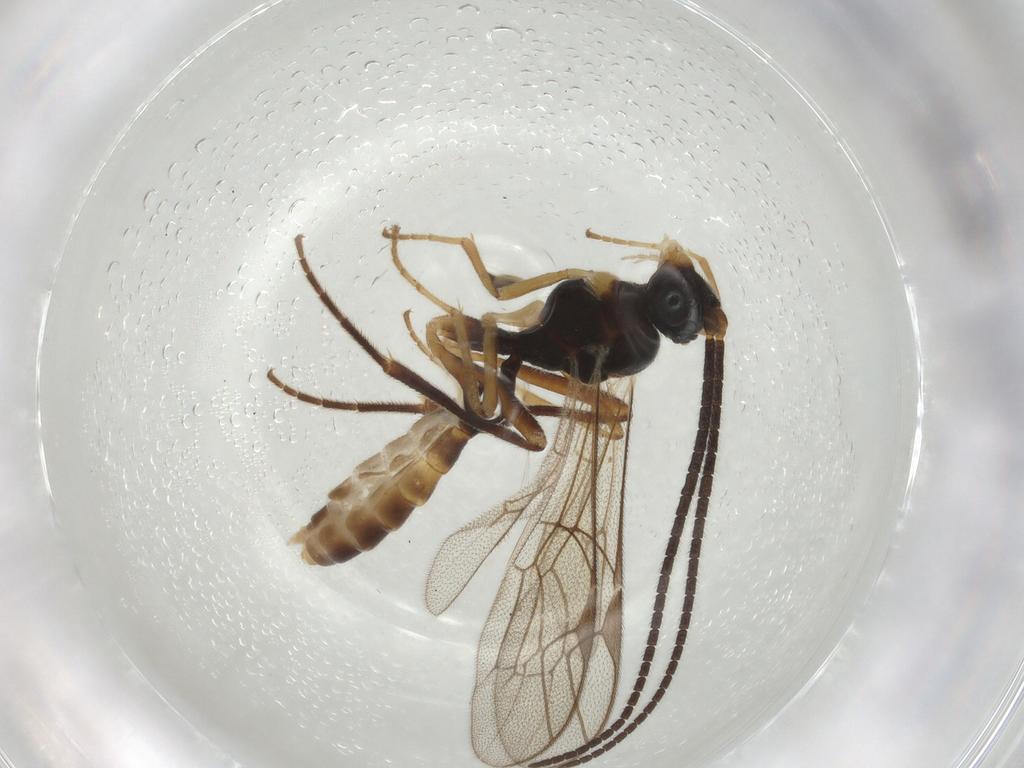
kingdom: Animalia
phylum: Arthropoda
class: Insecta
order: Hymenoptera
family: Ichneumonidae
